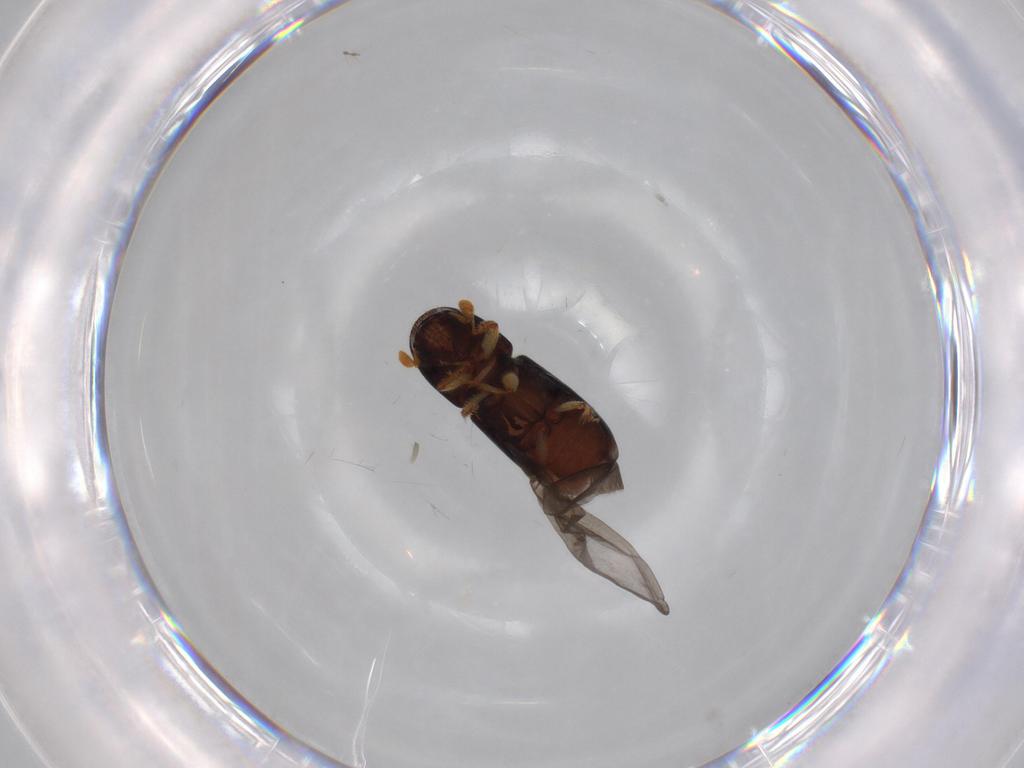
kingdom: Animalia
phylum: Arthropoda
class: Insecta
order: Coleoptera
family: Curculionidae
